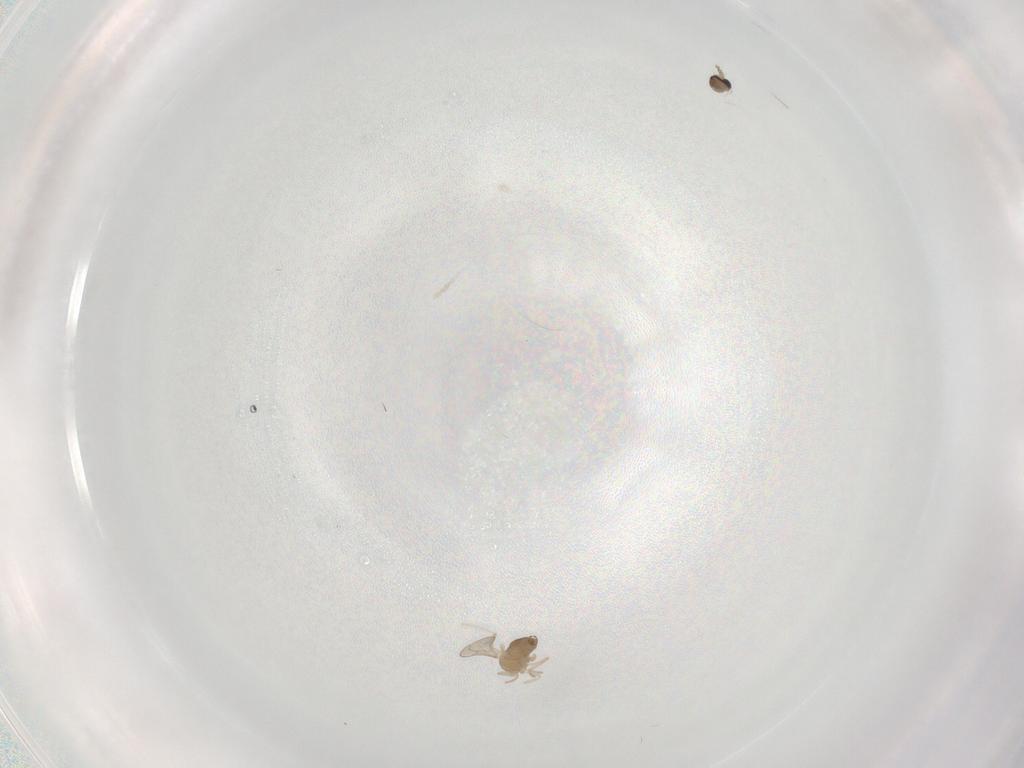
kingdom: Animalia
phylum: Arthropoda
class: Insecta
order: Diptera
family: Cecidomyiidae
